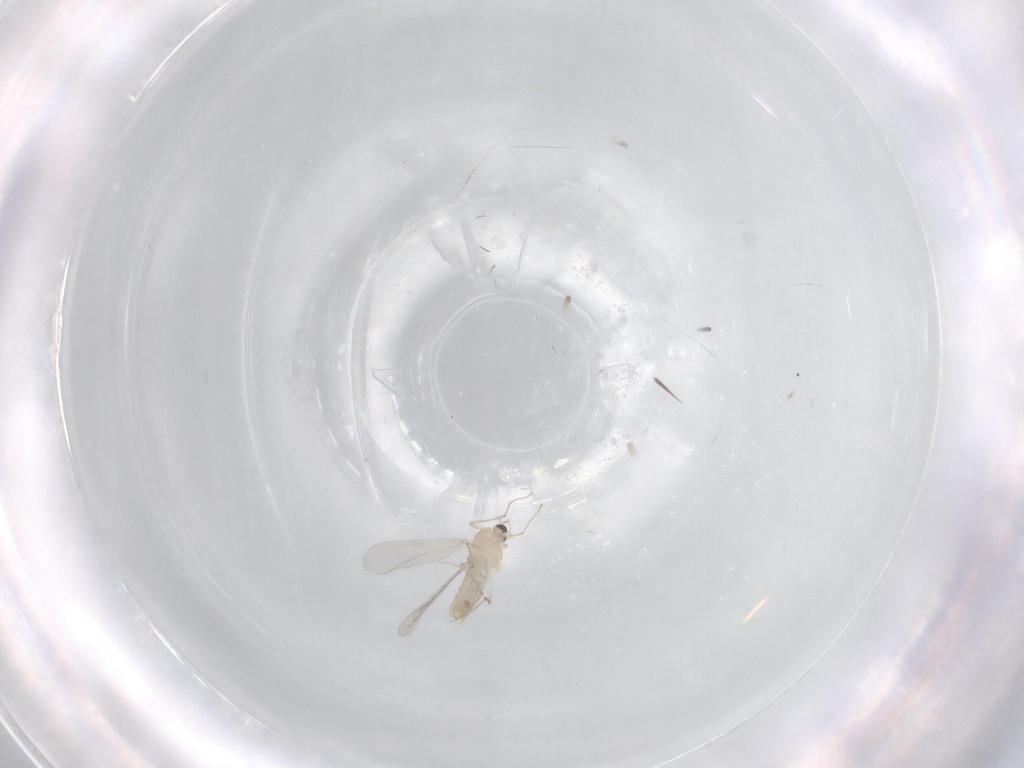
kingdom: Animalia
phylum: Arthropoda
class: Insecta
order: Diptera
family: Chironomidae
